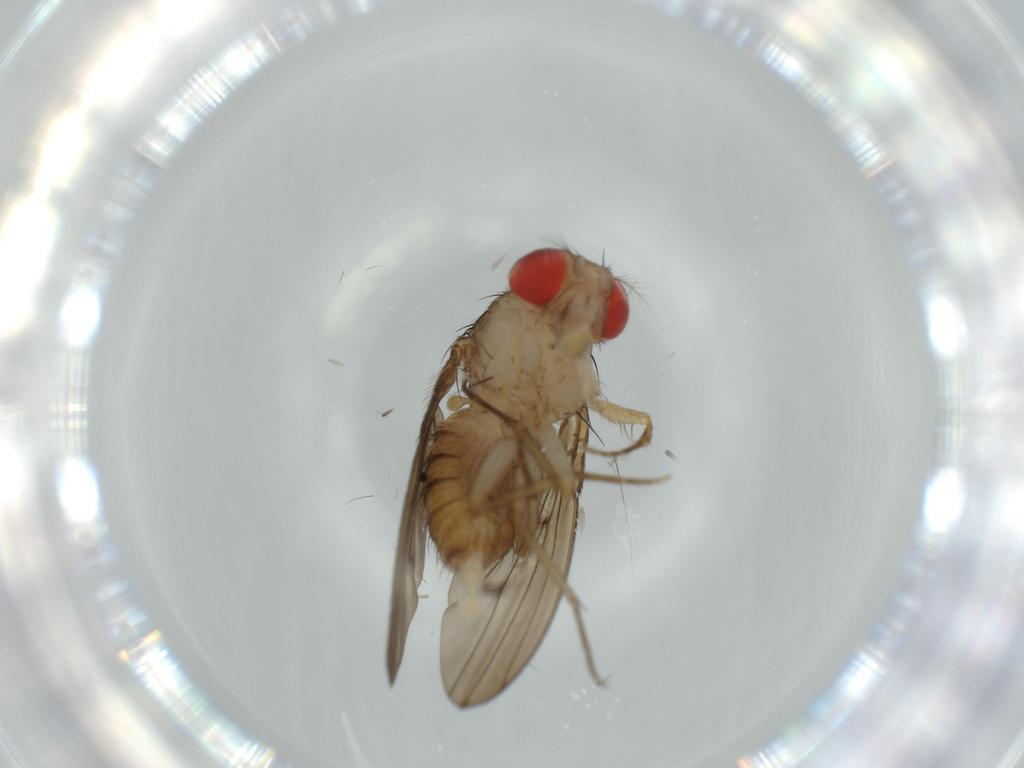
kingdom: Animalia
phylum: Arthropoda
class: Insecta
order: Diptera
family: Drosophilidae
